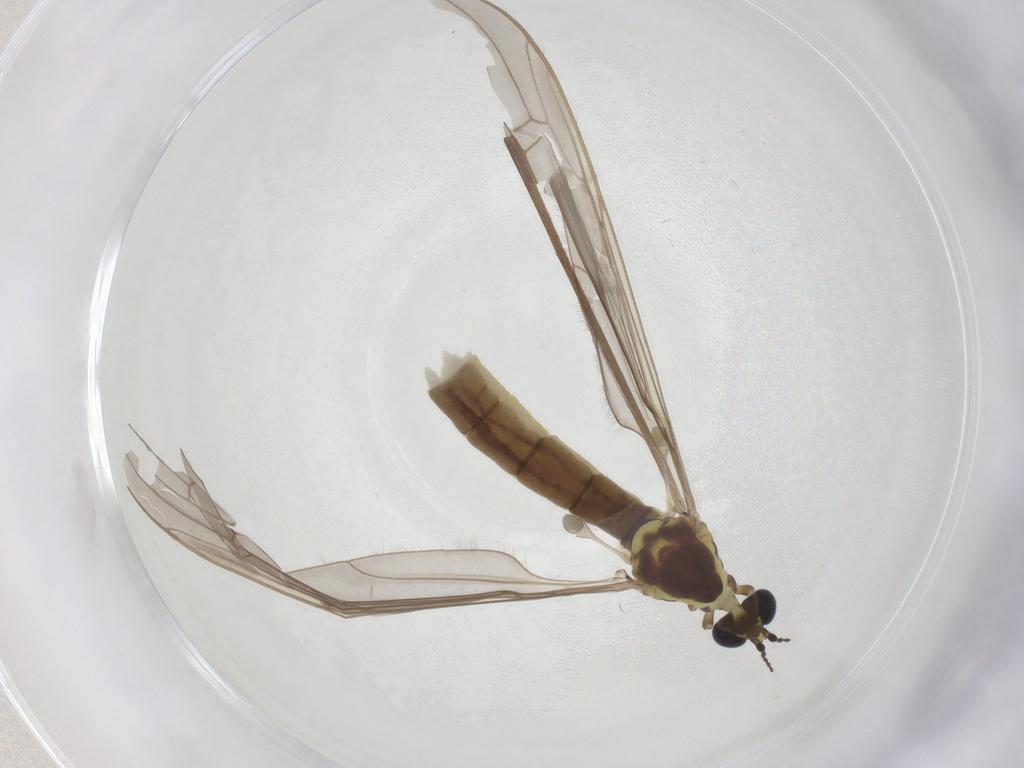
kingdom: Animalia
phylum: Arthropoda
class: Insecta
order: Diptera
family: Limoniidae
